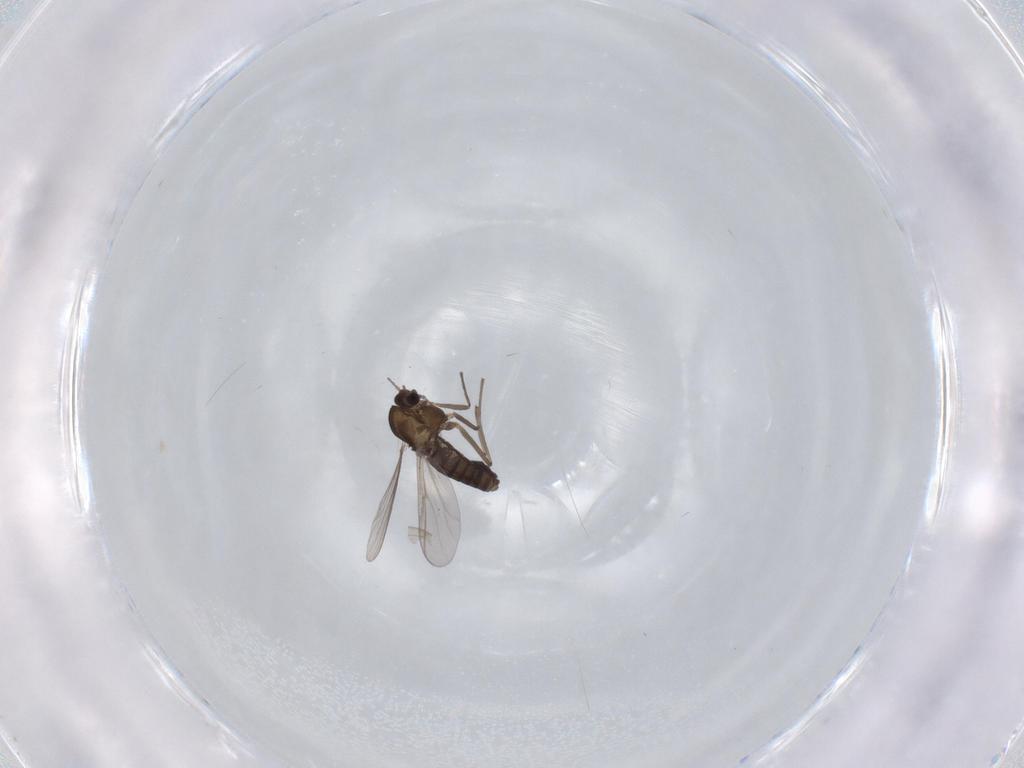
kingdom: Animalia
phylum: Arthropoda
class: Insecta
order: Diptera
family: Chironomidae
